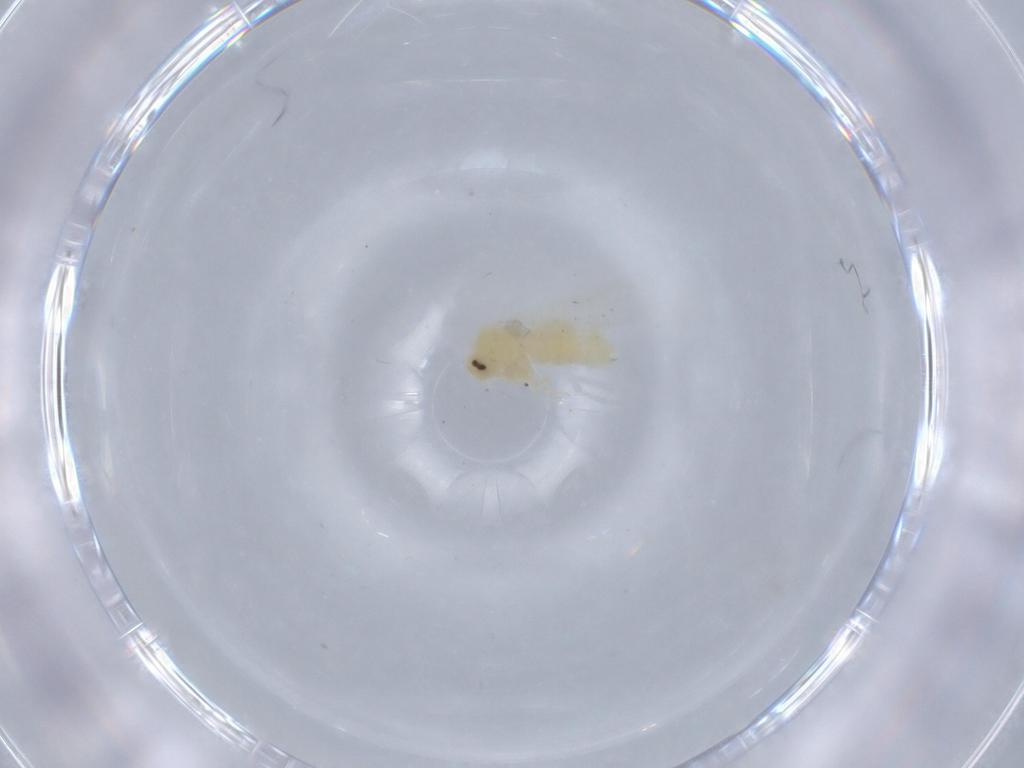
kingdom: Animalia
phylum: Arthropoda
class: Insecta
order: Hemiptera
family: Aleyrodidae
